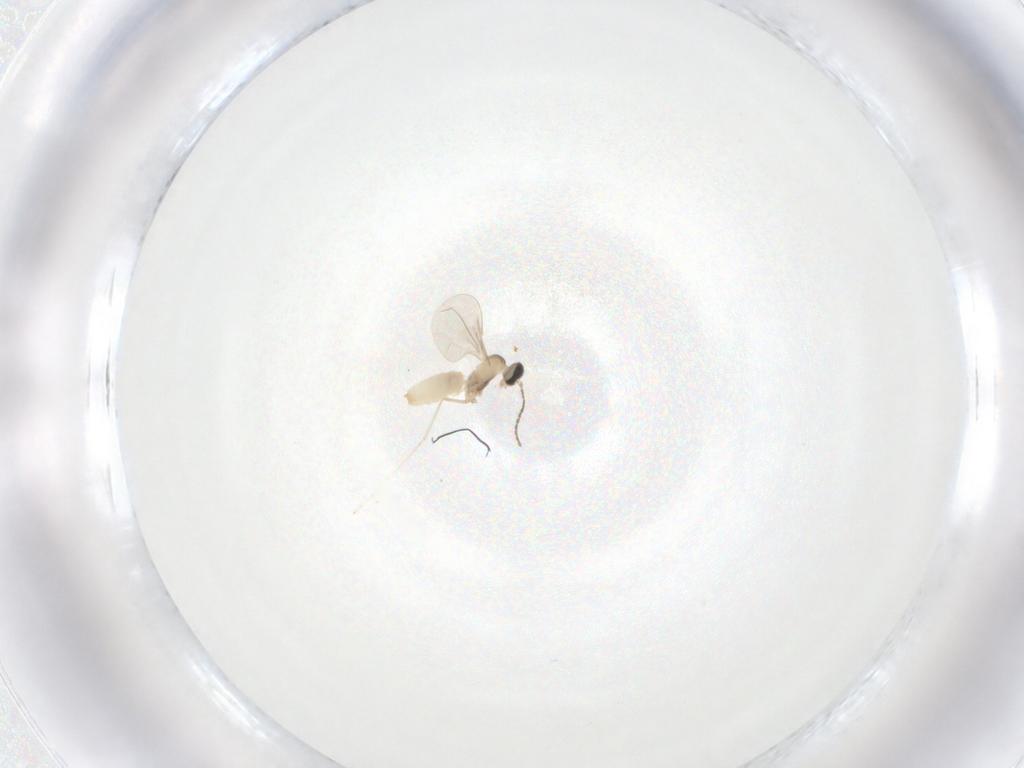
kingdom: Animalia
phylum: Arthropoda
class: Insecta
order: Diptera
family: Cecidomyiidae
